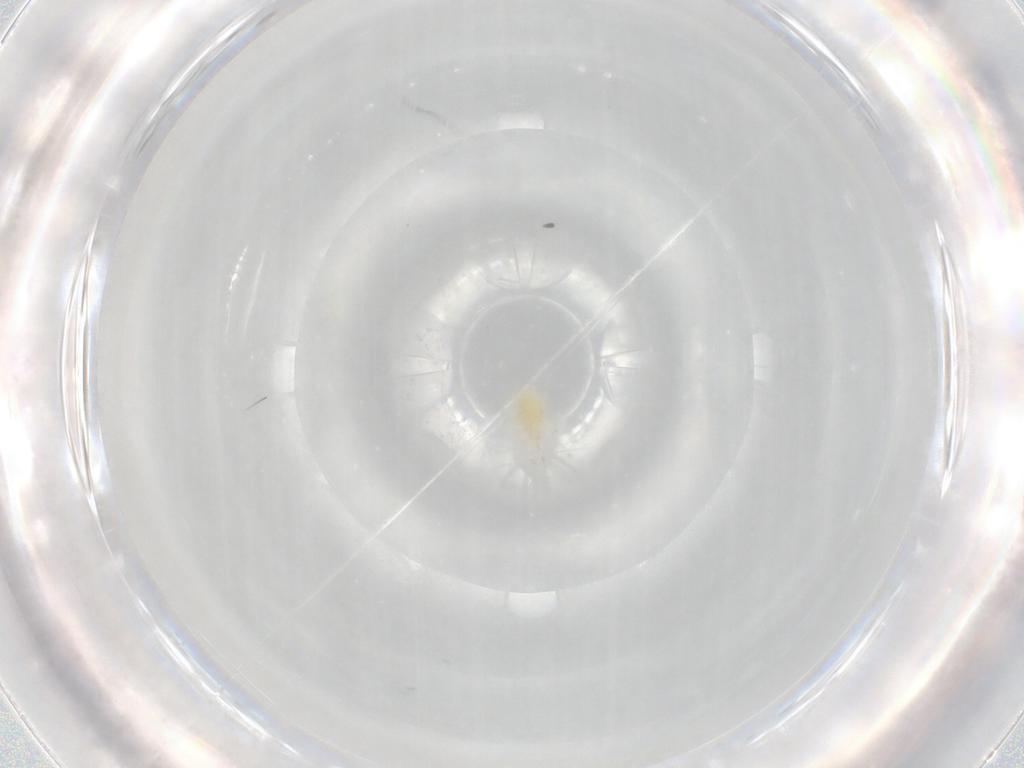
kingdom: Animalia
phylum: Arthropoda
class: Arachnida
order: Trombidiformes
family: Cunaxidae
